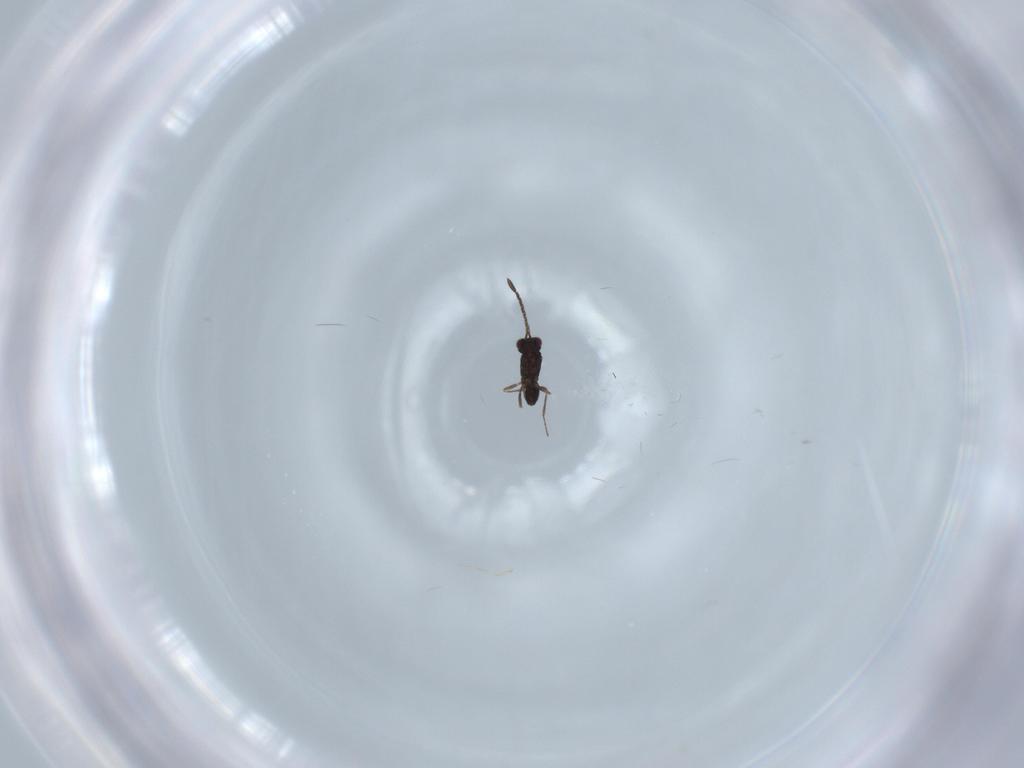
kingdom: Animalia
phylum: Arthropoda
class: Insecta
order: Hymenoptera
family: Mymaridae
